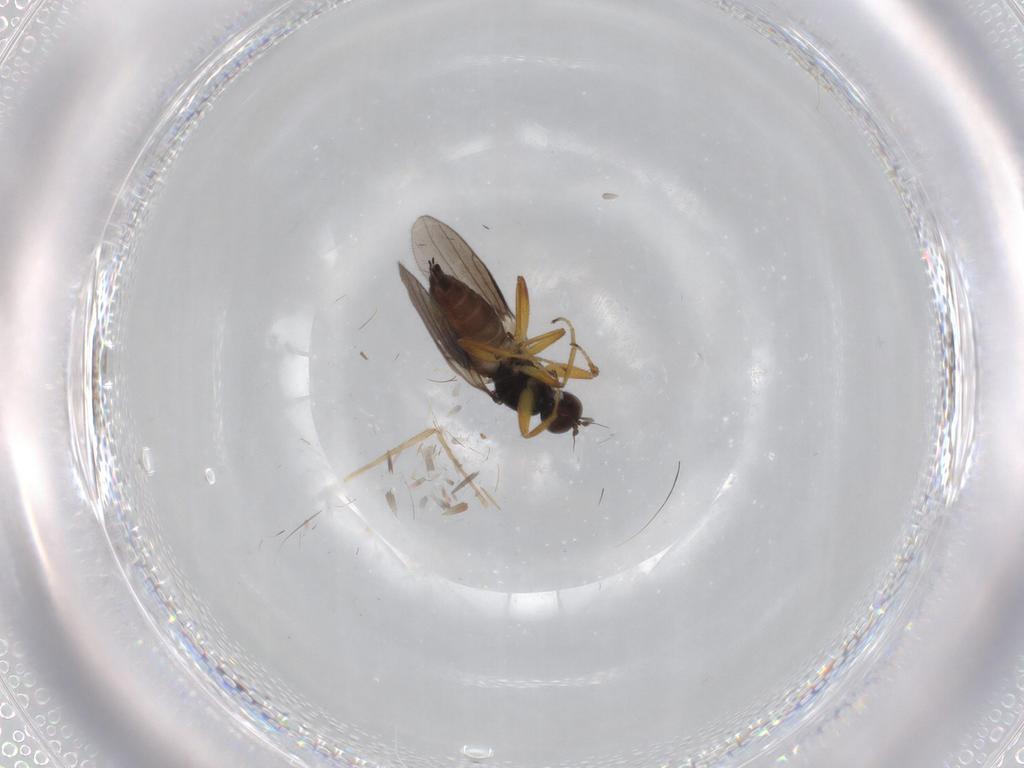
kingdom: Animalia
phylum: Arthropoda
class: Insecta
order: Diptera
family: Hybotidae
